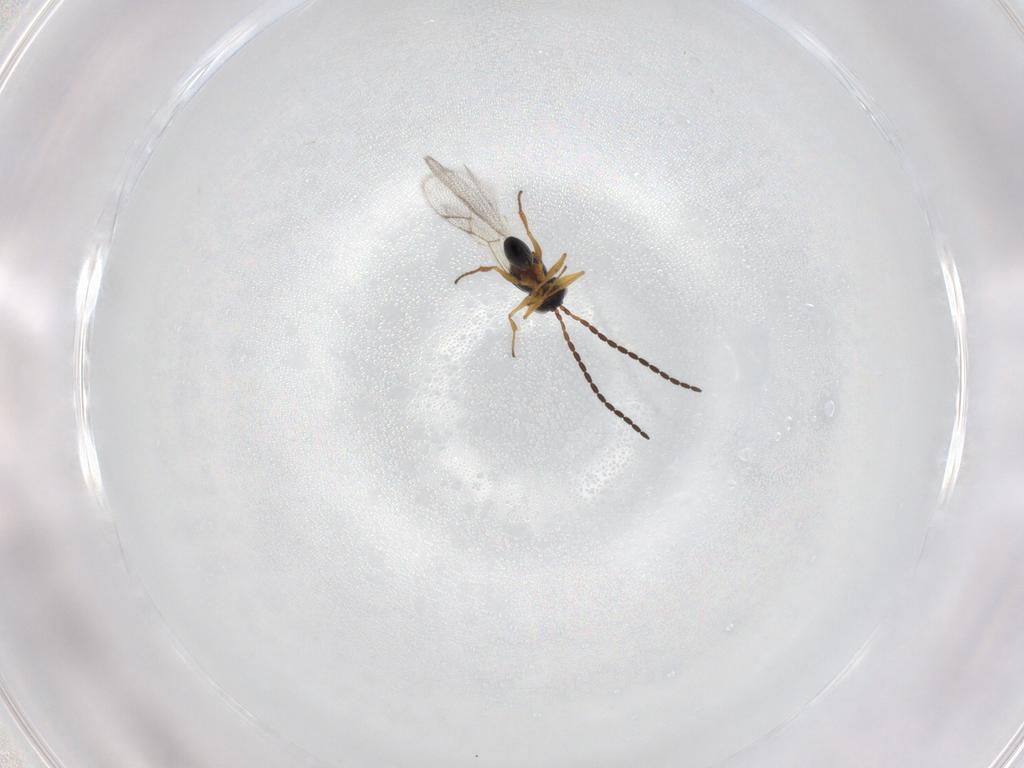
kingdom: Animalia
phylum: Arthropoda
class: Insecta
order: Hymenoptera
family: Figitidae
